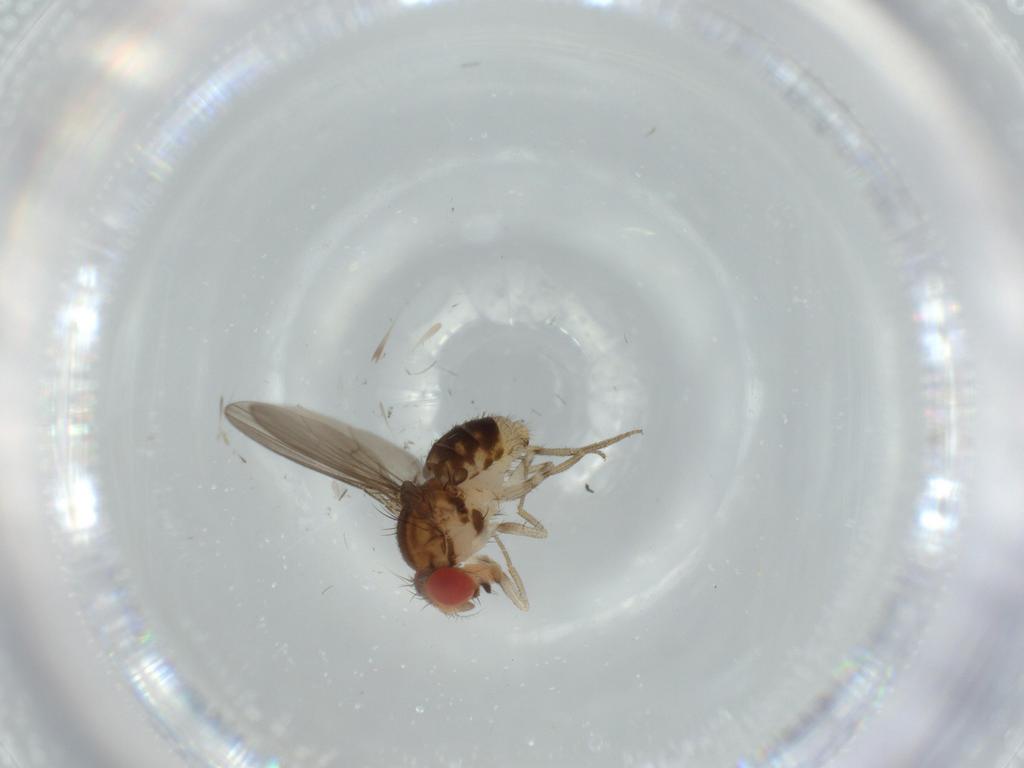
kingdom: Animalia
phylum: Arthropoda
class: Insecta
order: Diptera
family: Drosophilidae
